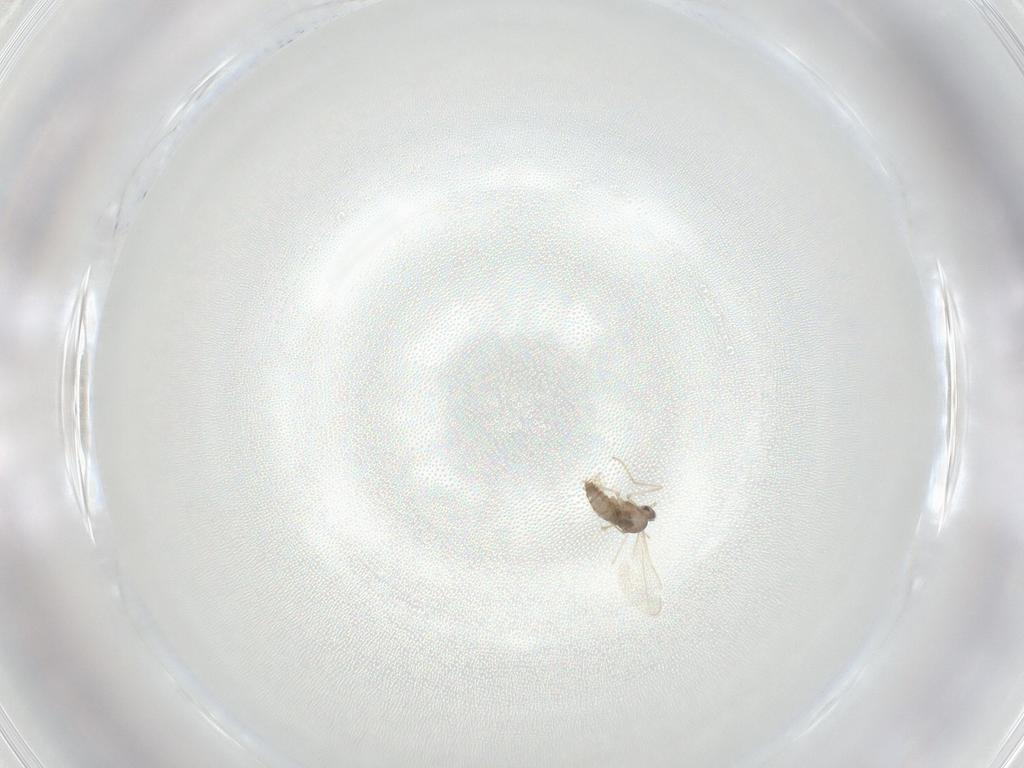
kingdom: Animalia
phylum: Arthropoda
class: Insecta
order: Diptera
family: Cecidomyiidae
